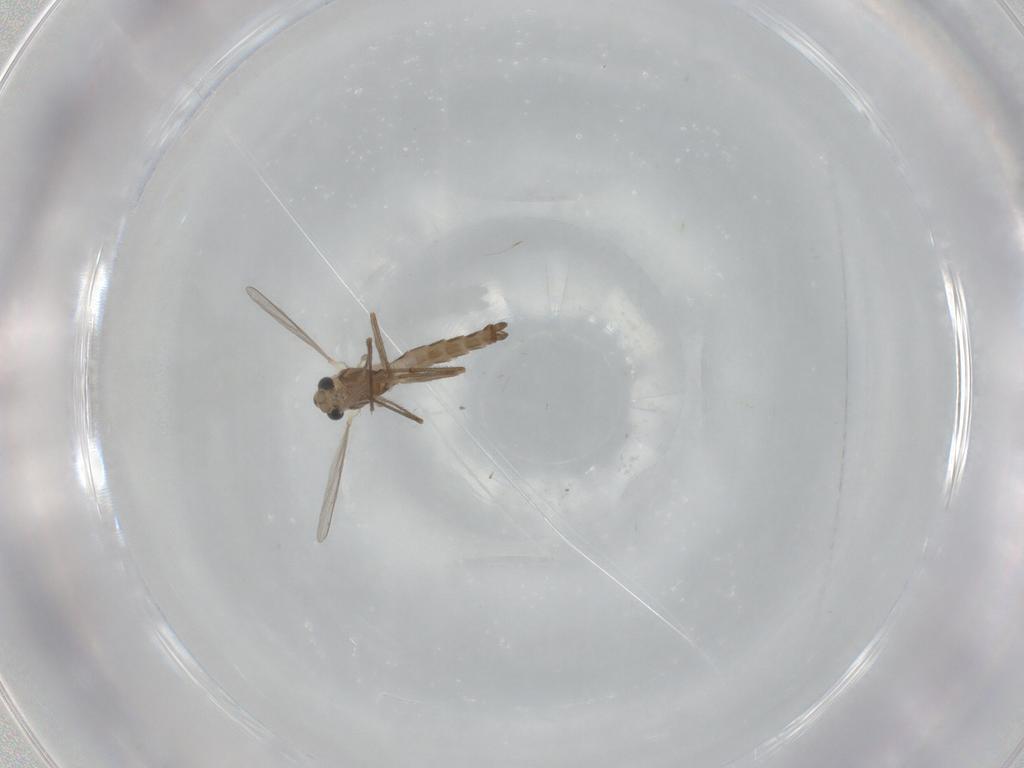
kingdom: Animalia
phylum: Arthropoda
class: Insecta
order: Diptera
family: Chironomidae
